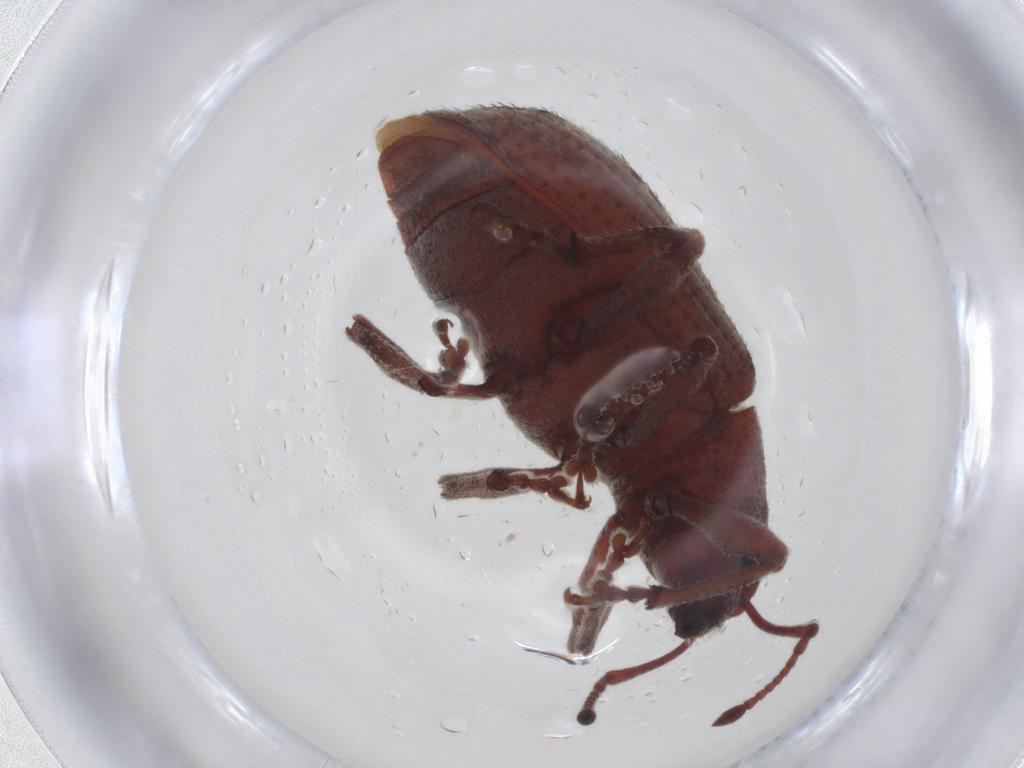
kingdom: Animalia
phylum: Arthropoda
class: Insecta
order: Coleoptera
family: Curculionidae
